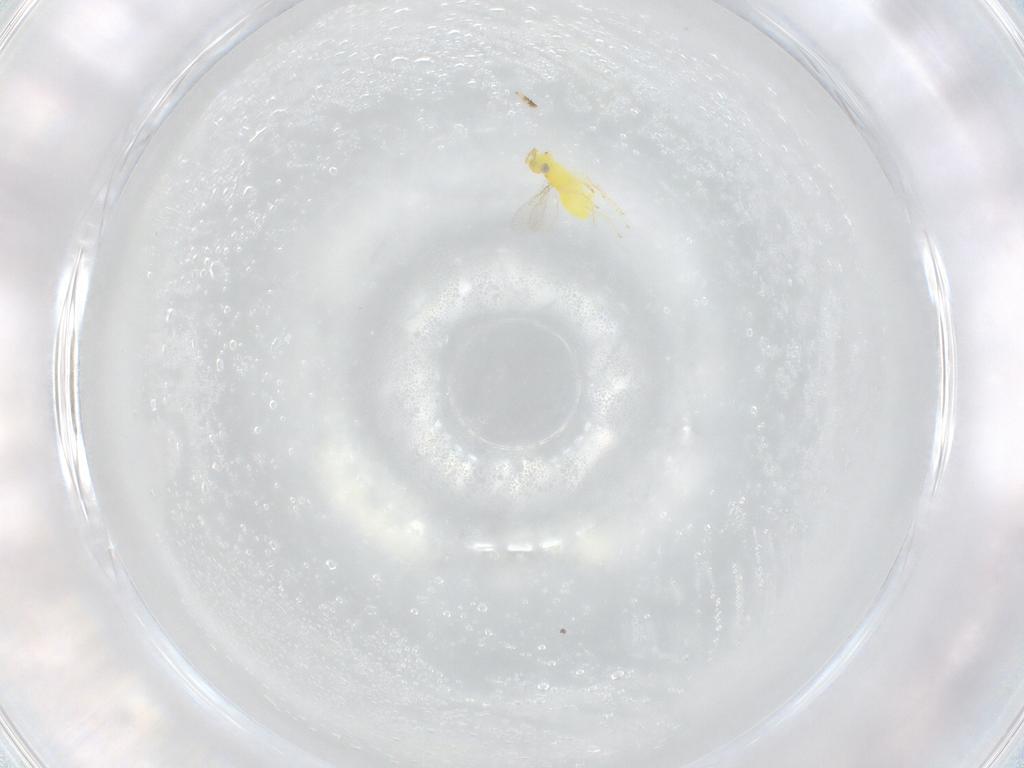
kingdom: Animalia
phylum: Arthropoda
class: Insecta
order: Hymenoptera
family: Aphelinidae
